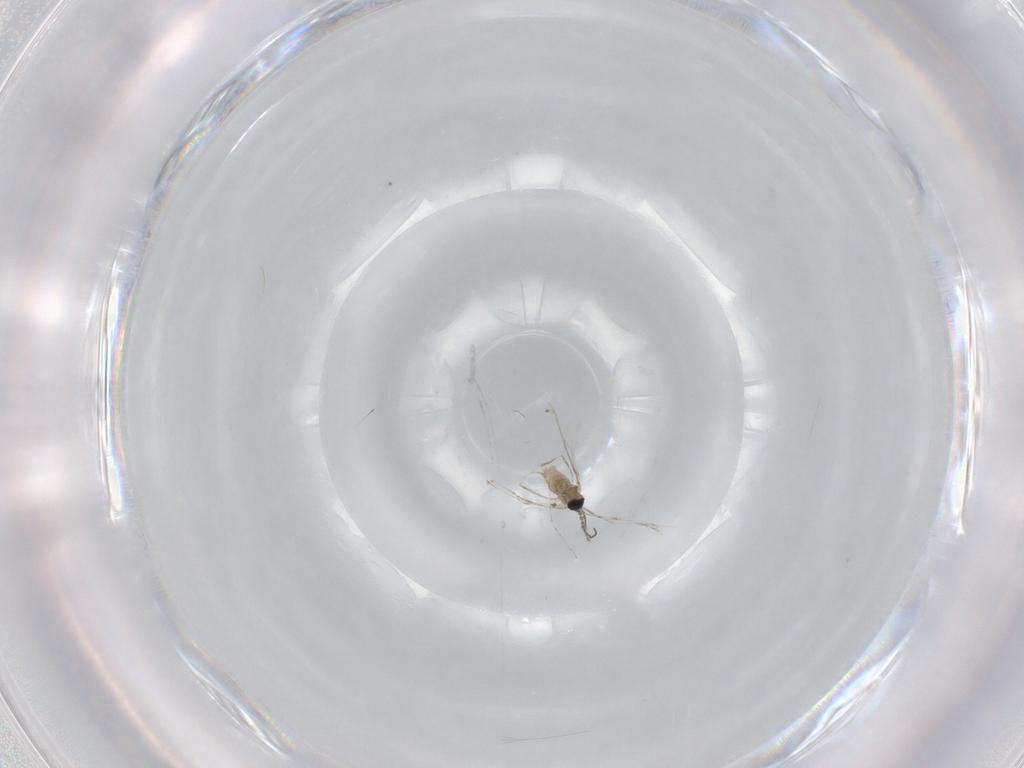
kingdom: Animalia
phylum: Arthropoda
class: Insecta
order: Diptera
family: Cecidomyiidae
